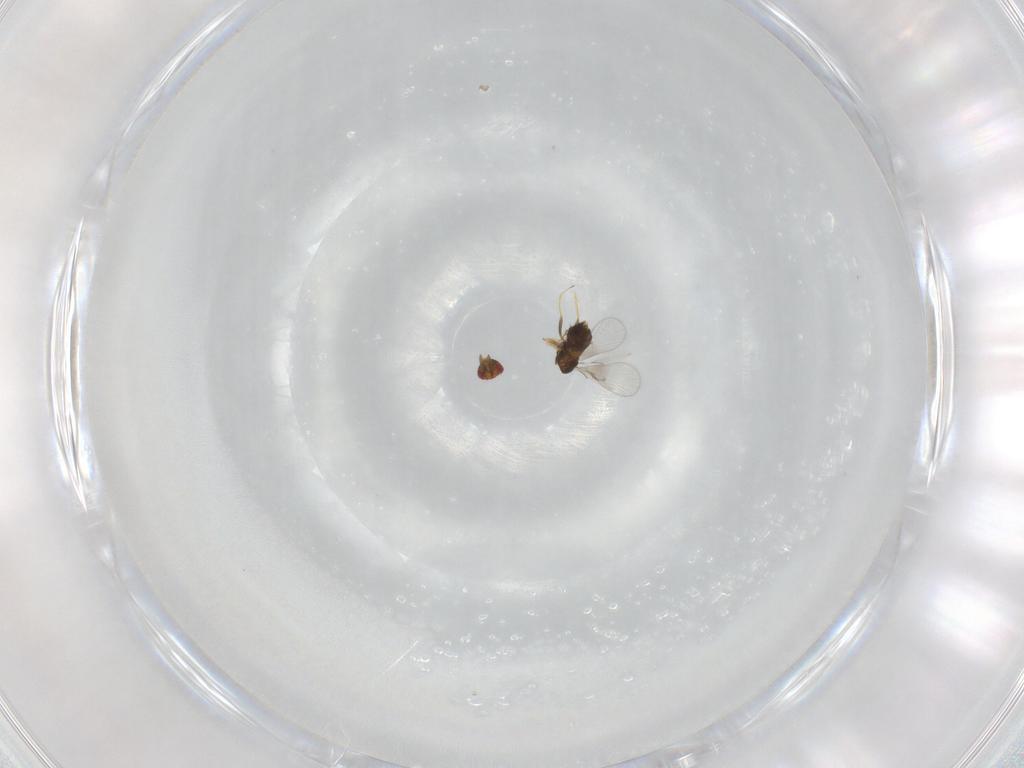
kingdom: Animalia
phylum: Arthropoda
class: Insecta
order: Hymenoptera
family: Trichogrammatidae
